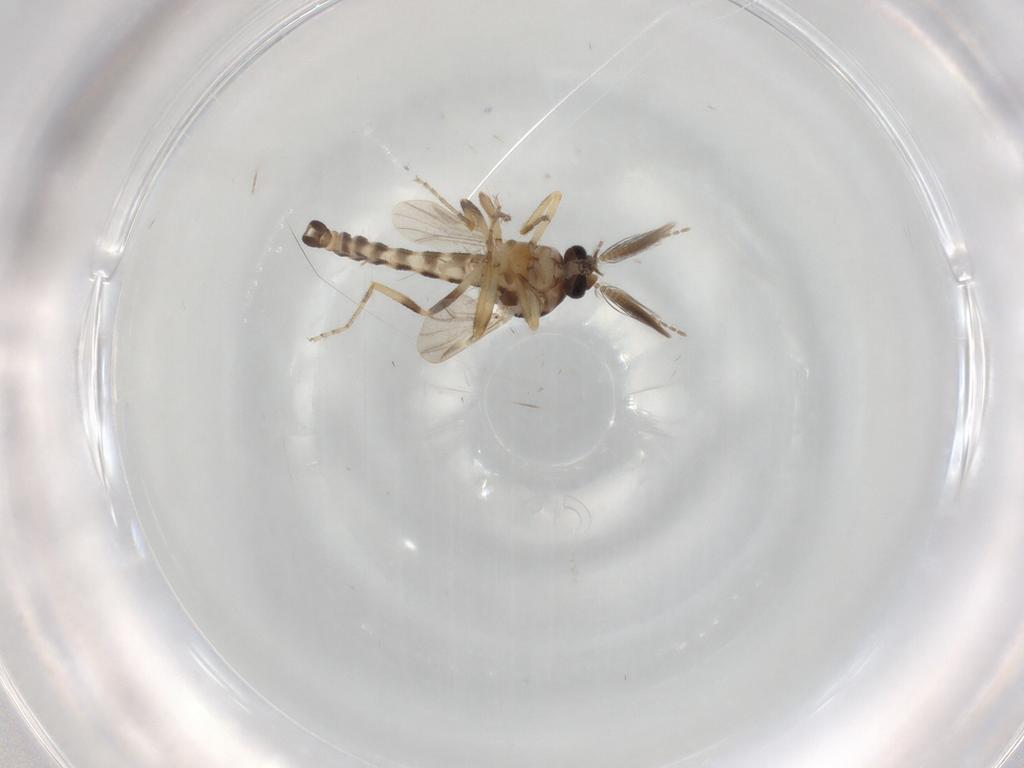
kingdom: Animalia
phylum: Arthropoda
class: Insecta
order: Diptera
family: Ceratopogonidae
